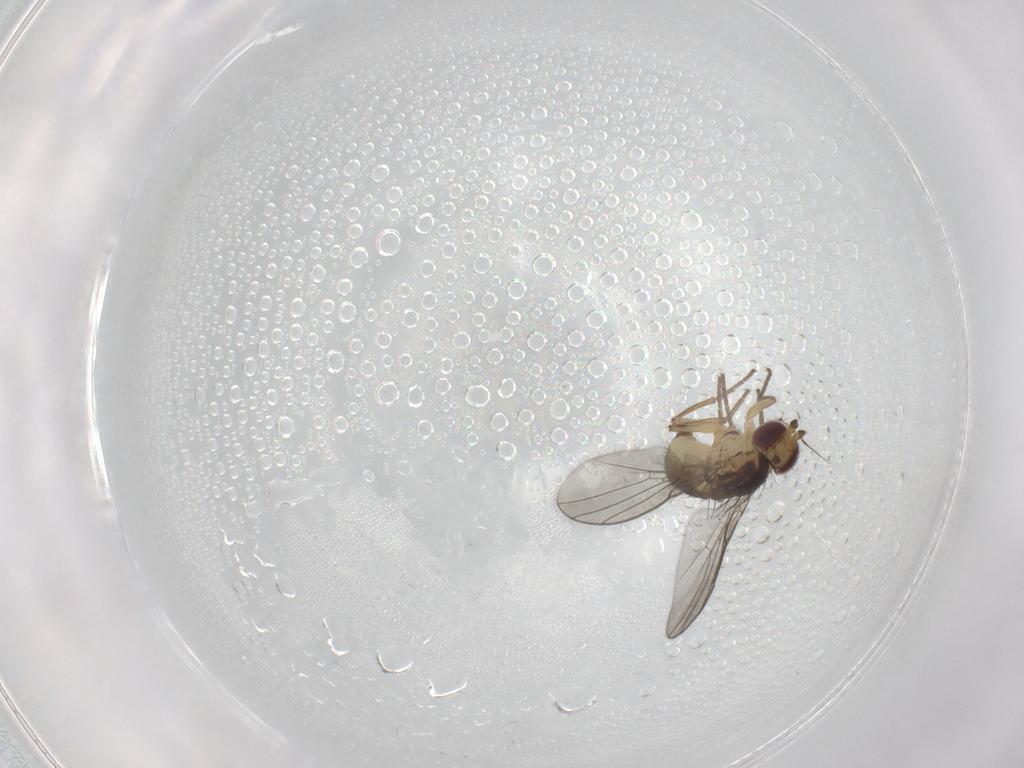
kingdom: Animalia
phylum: Arthropoda
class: Insecta
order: Diptera
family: Agromyzidae
